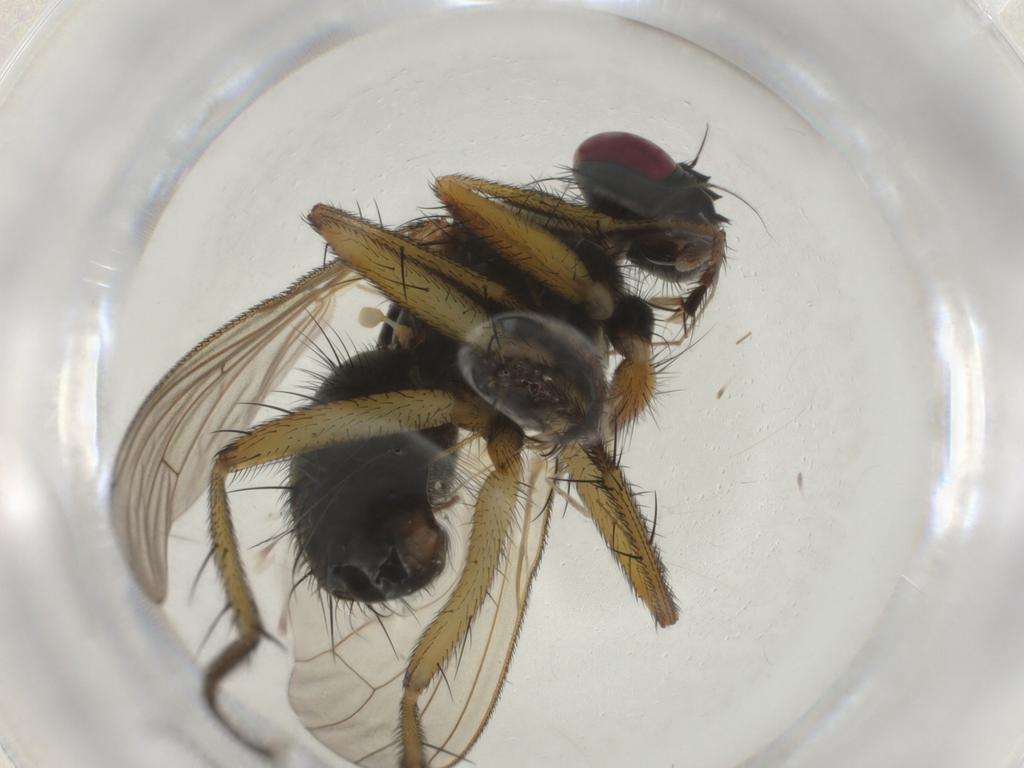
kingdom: Animalia
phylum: Arthropoda
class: Insecta
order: Diptera
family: Muscidae
